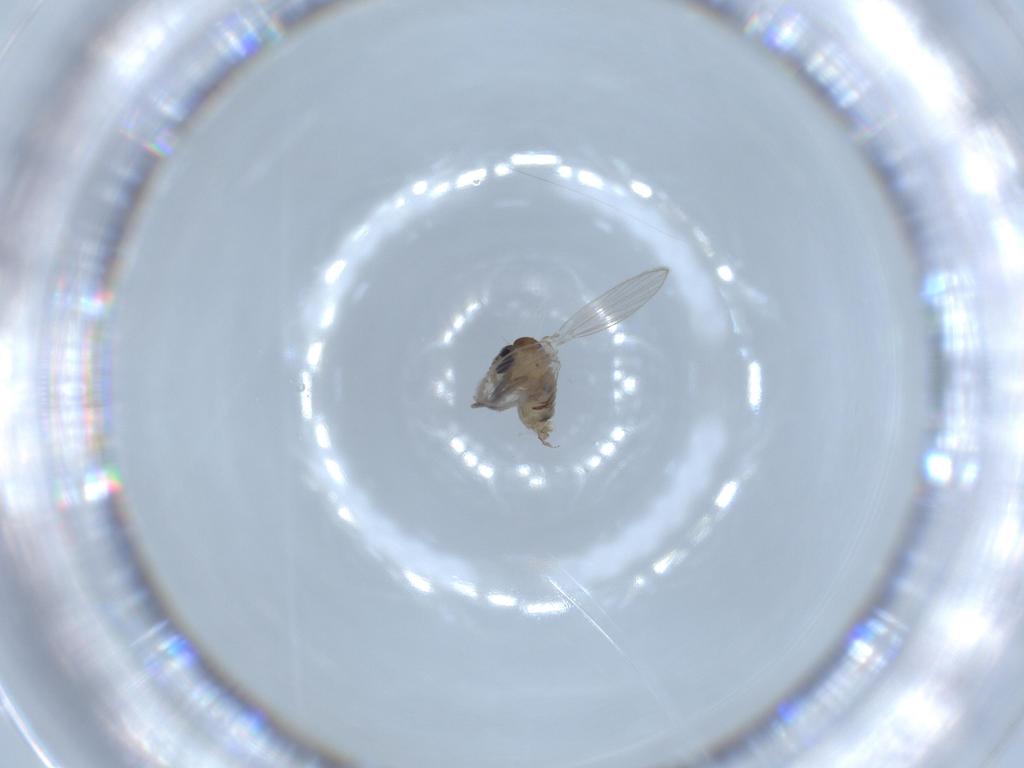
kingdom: Animalia
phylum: Arthropoda
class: Insecta
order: Diptera
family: Psychodidae
